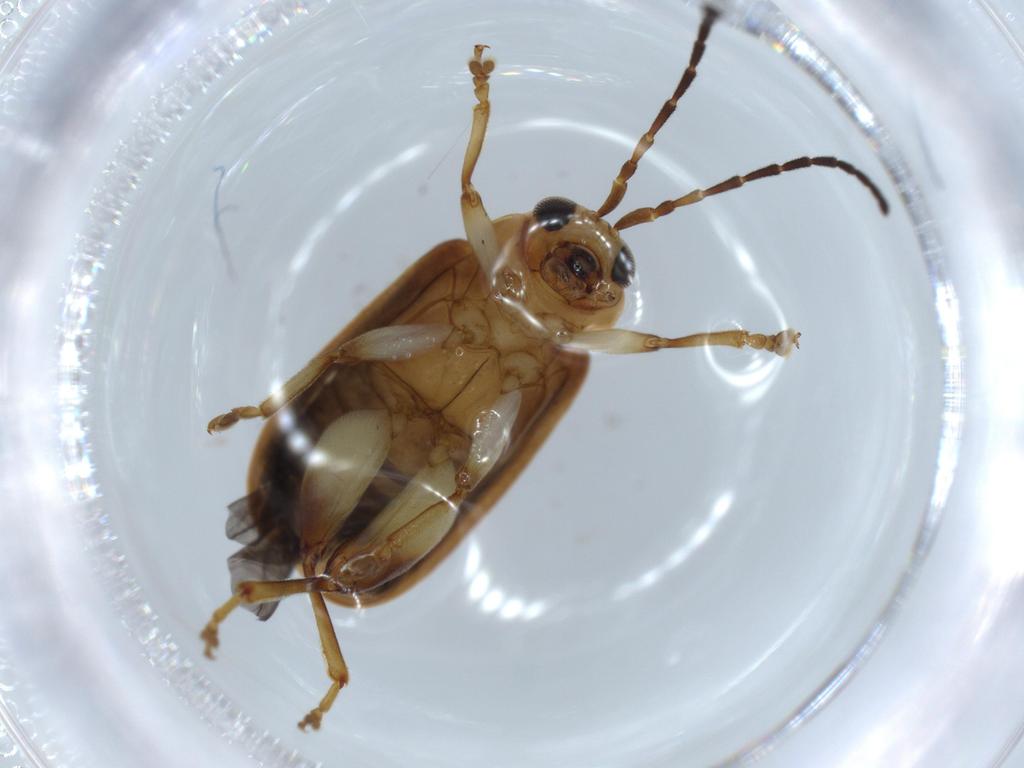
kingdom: Animalia
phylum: Arthropoda
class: Insecta
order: Coleoptera
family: Chrysomelidae
